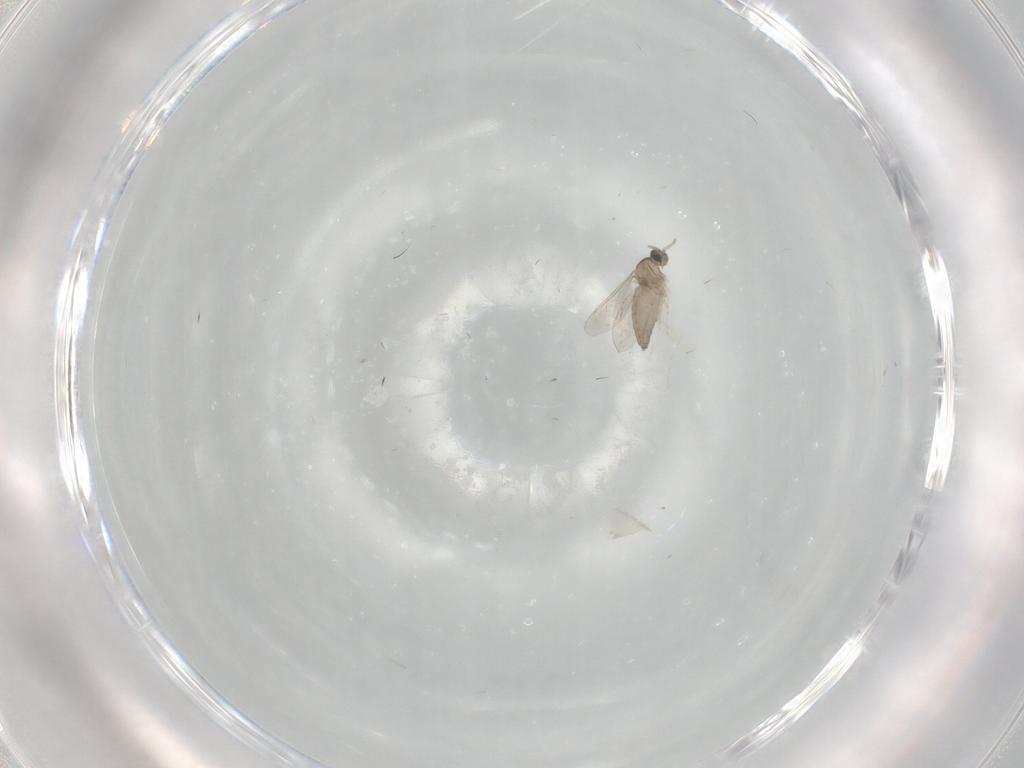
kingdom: Animalia
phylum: Arthropoda
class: Insecta
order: Diptera
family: Cecidomyiidae
